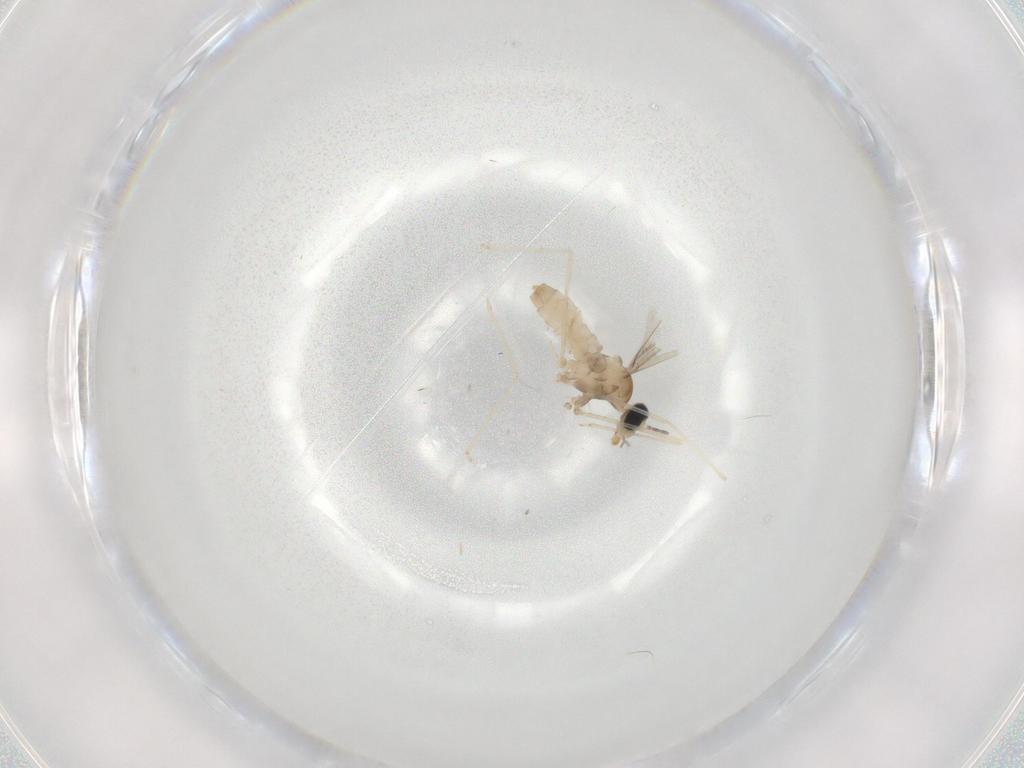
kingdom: Animalia
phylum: Arthropoda
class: Insecta
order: Diptera
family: Cecidomyiidae
